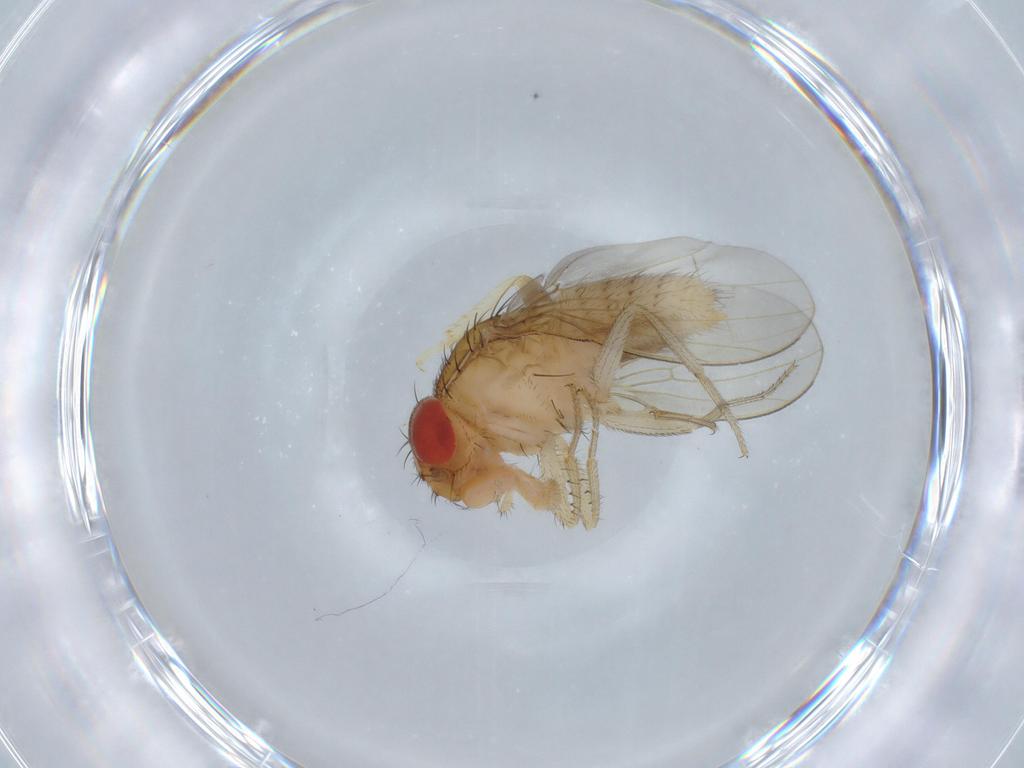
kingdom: Animalia
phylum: Arthropoda
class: Insecta
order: Diptera
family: Drosophilidae
